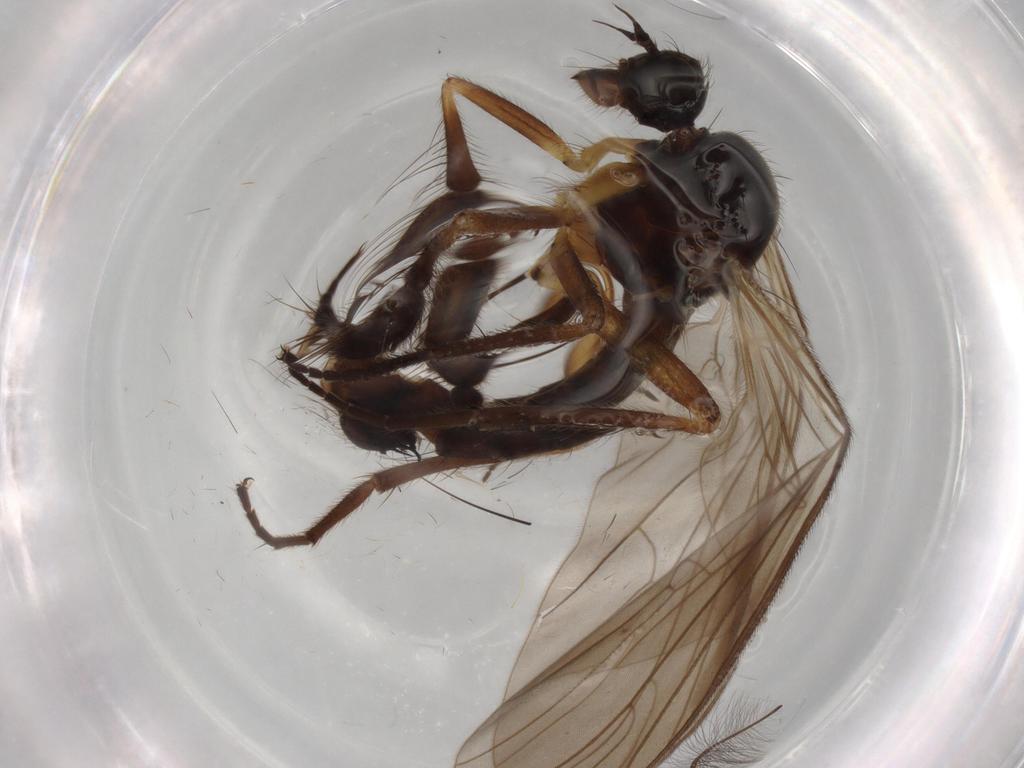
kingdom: Animalia
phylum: Arthropoda
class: Insecta
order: Diptera
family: Empididae
